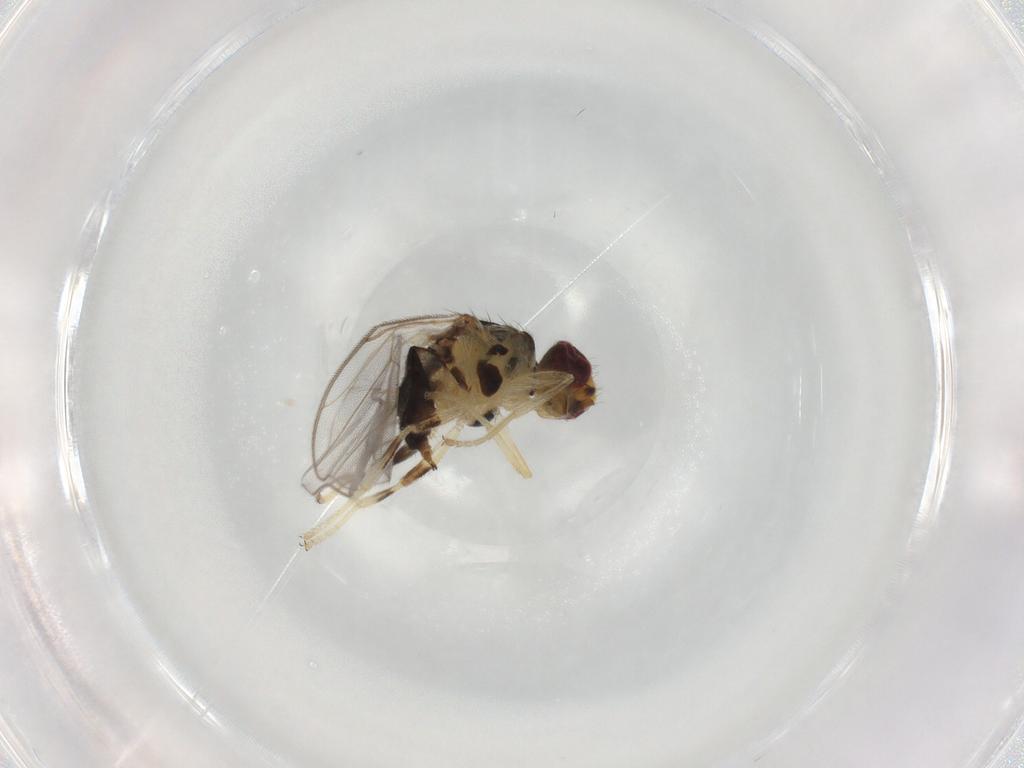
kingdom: Animalia
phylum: Arthropoda
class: Insecta
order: Diptera
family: Chloropidae
